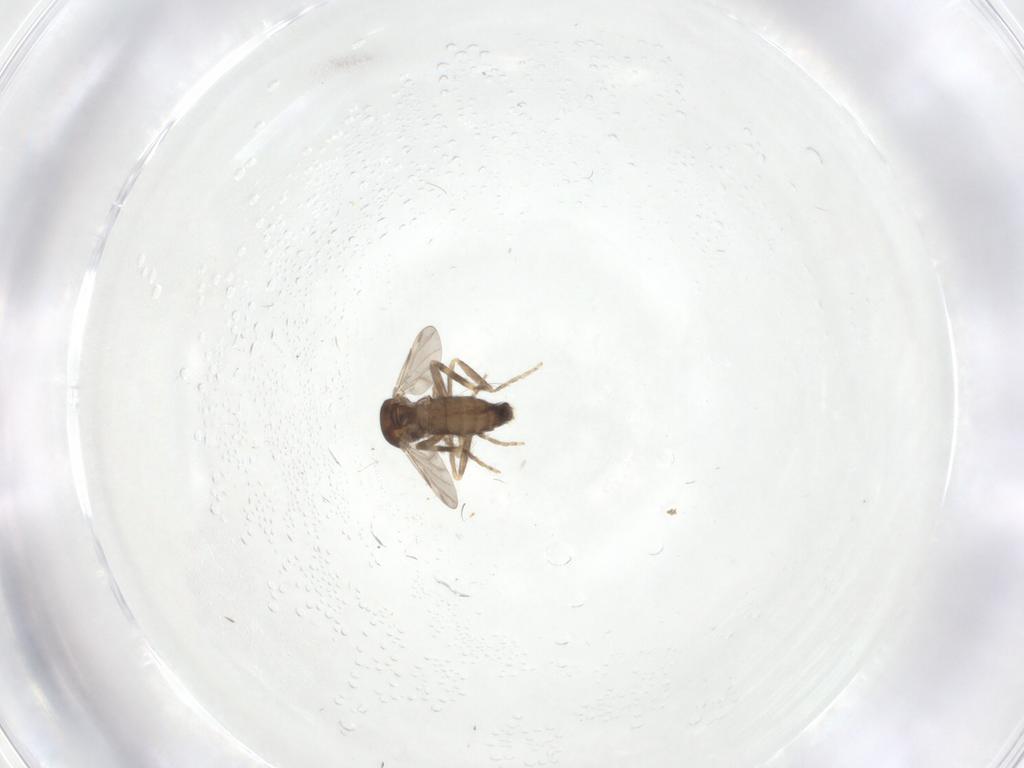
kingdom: Animalia
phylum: Arthropoda
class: Insecta
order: Diptera
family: Ceratopogonidae
